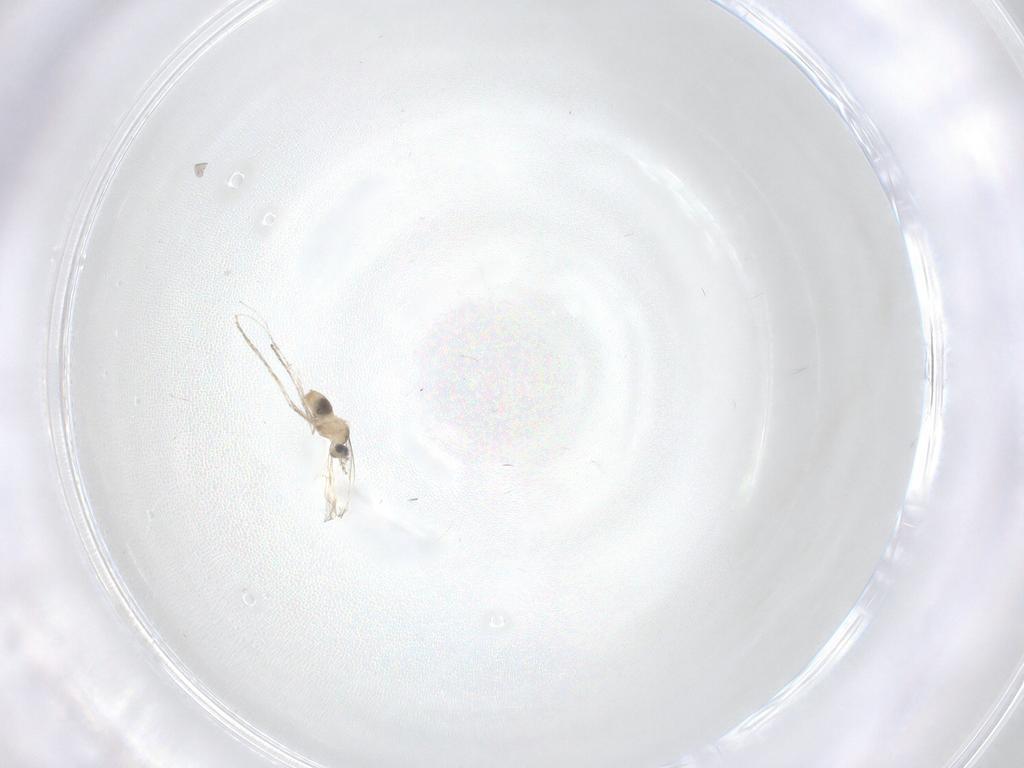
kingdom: Animalia
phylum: Arthropoda
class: Insecta
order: Diptera
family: Cecidomyiidae
